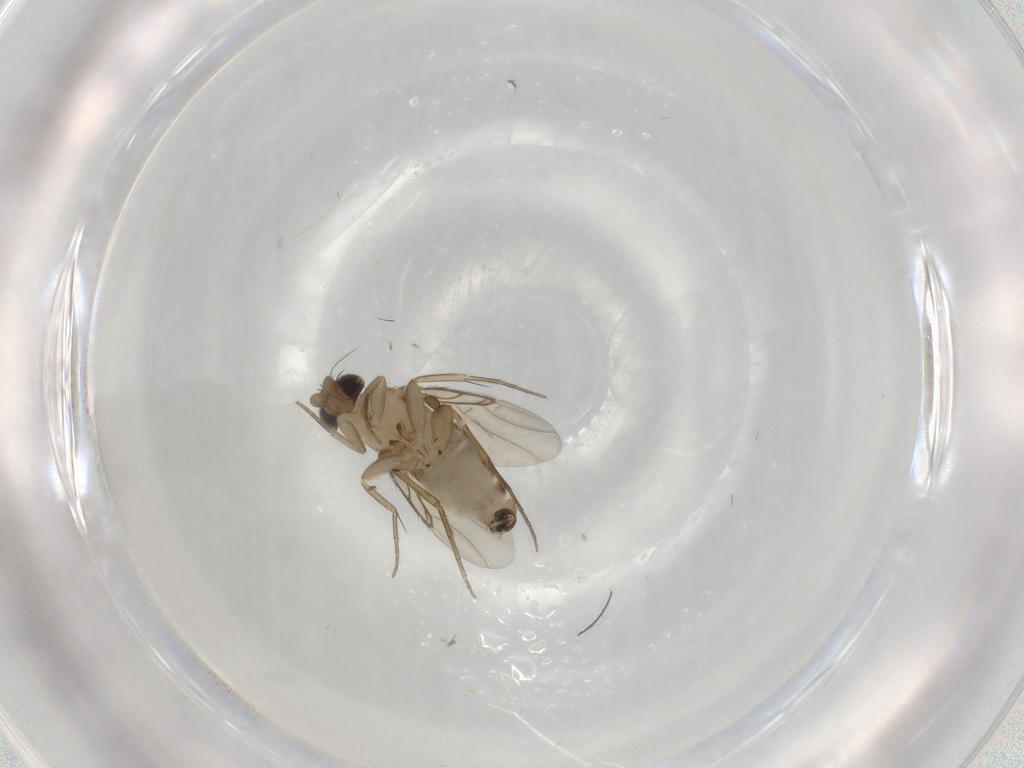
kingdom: Animalia
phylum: Arthropoda
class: Insecta
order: Diptera
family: Phoridae
